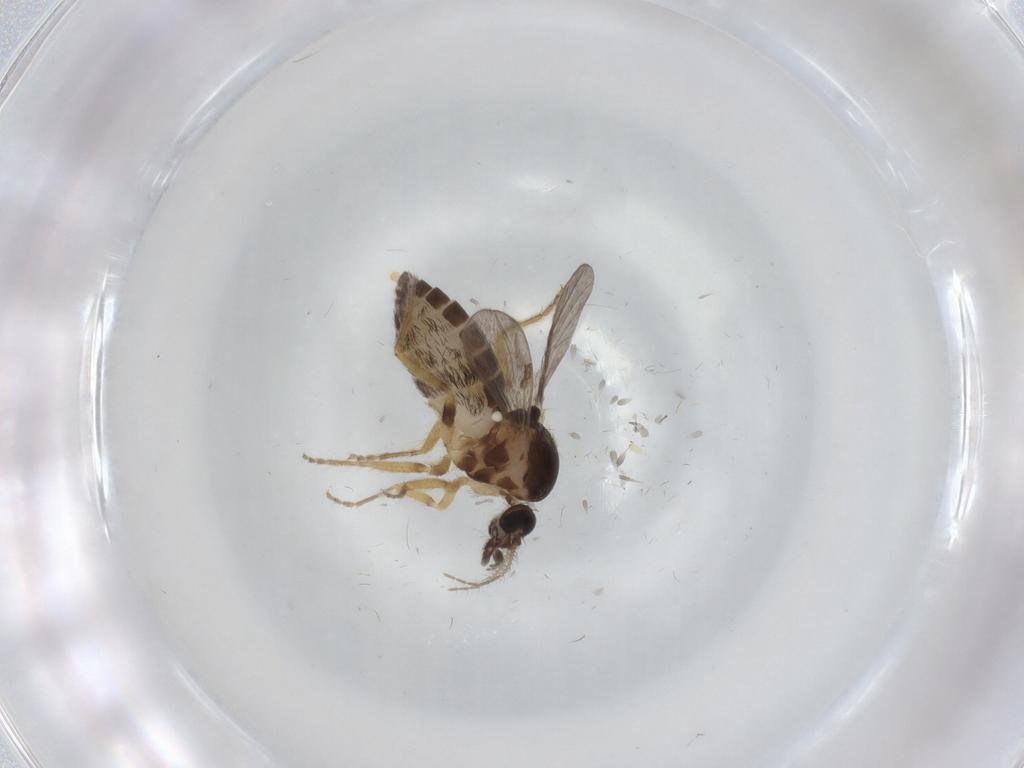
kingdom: Animalia
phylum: Arthropoda
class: Insecta
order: Diptera
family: Ceratopogonidae
